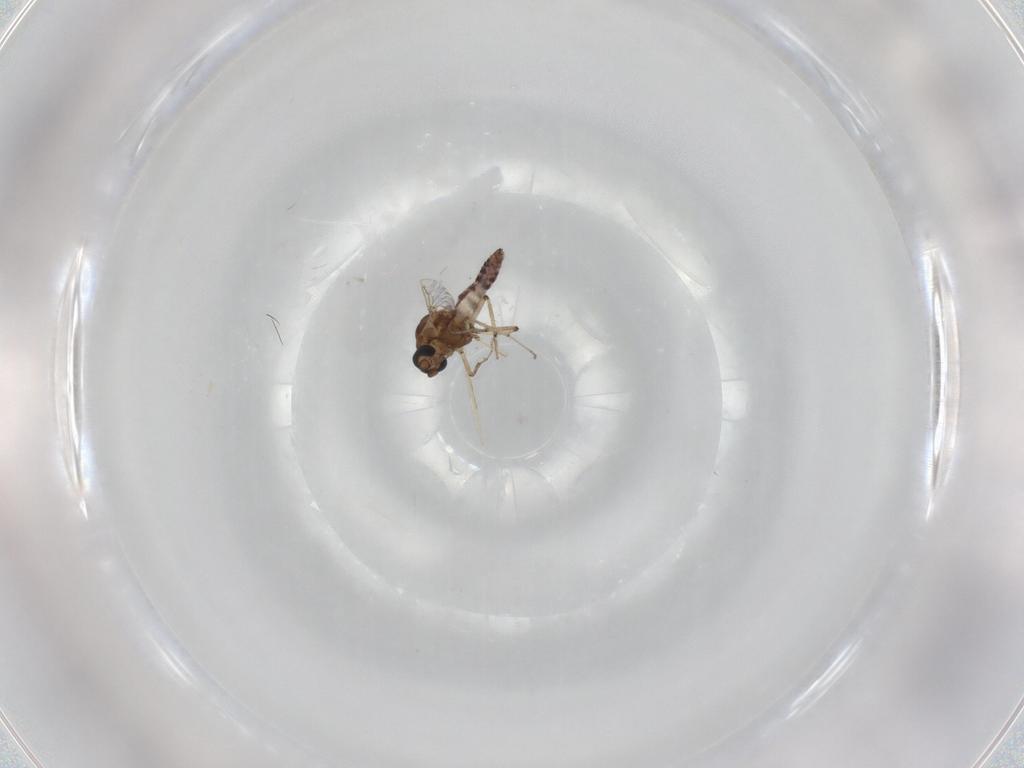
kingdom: Animalia
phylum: Arthropoda
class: Insecta
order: Diptera
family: Ceratopogonidae
